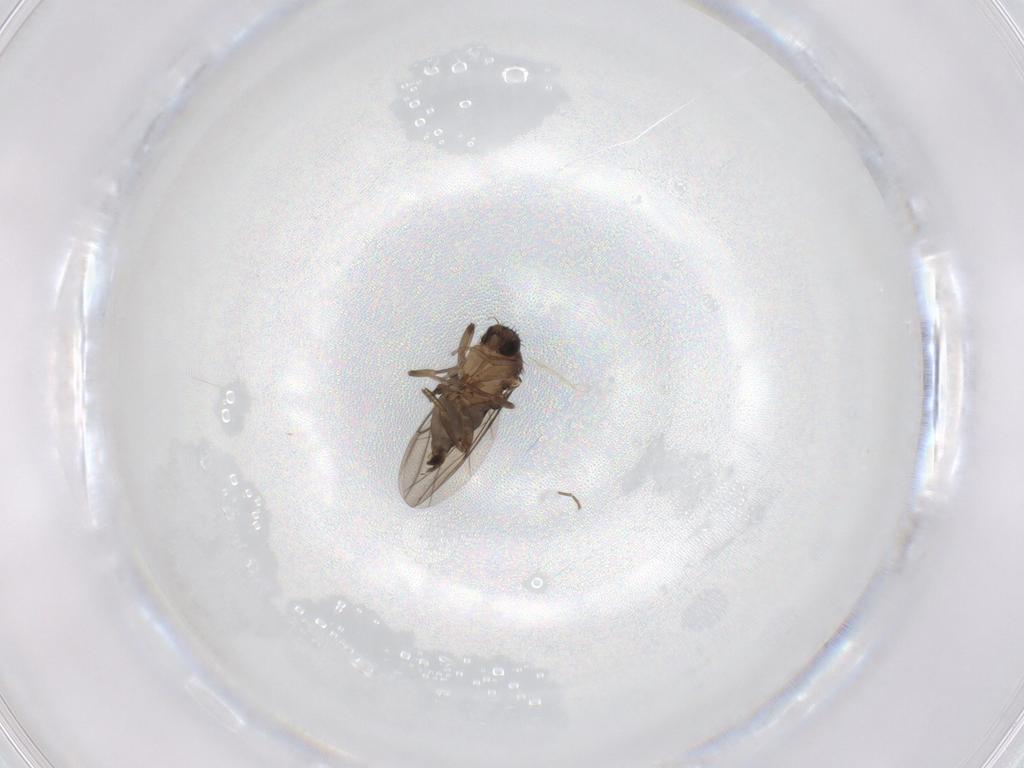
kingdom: Animalia
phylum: Arthropoda
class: Insecta
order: Diptera
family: Phoridae
